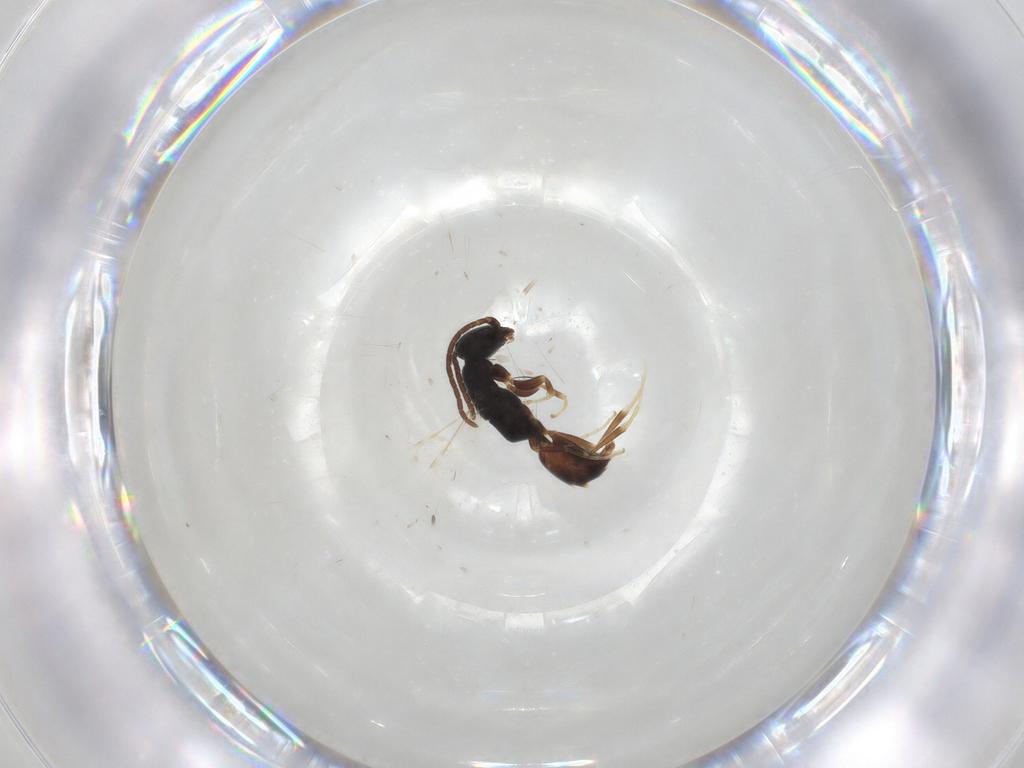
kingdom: Animalia
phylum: Arthropoda
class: Insecta
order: Hymenoptera
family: Bethylidae
